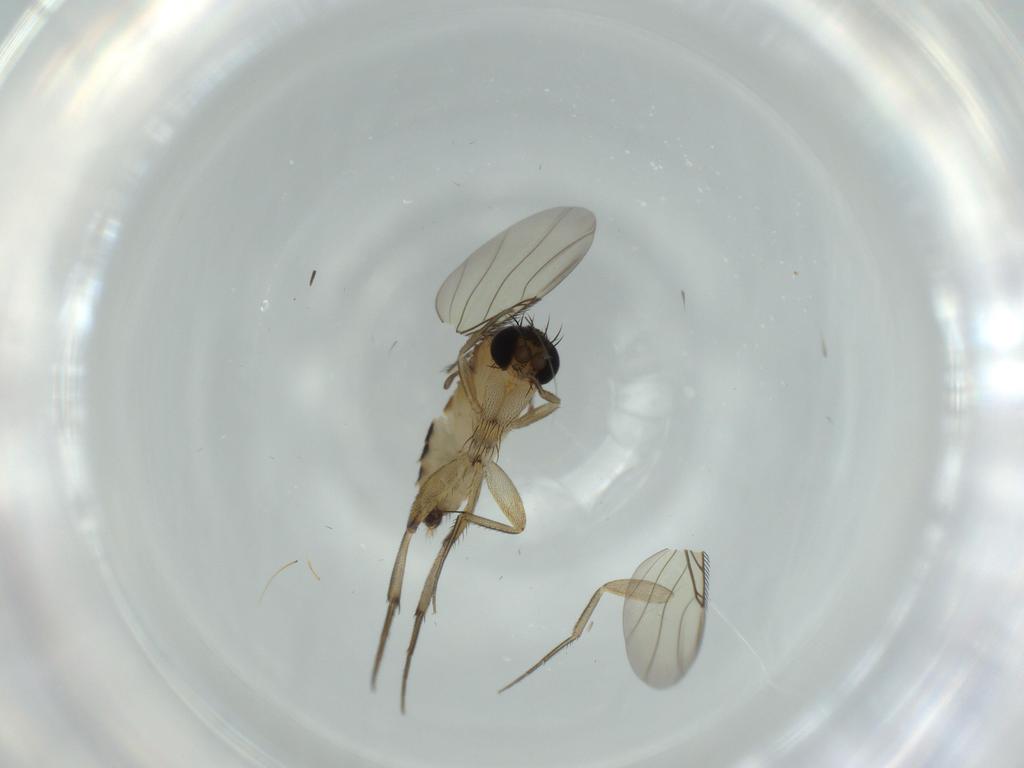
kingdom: Animalia
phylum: Arthropoda
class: Insecta
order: Diptera
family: Phoridae
